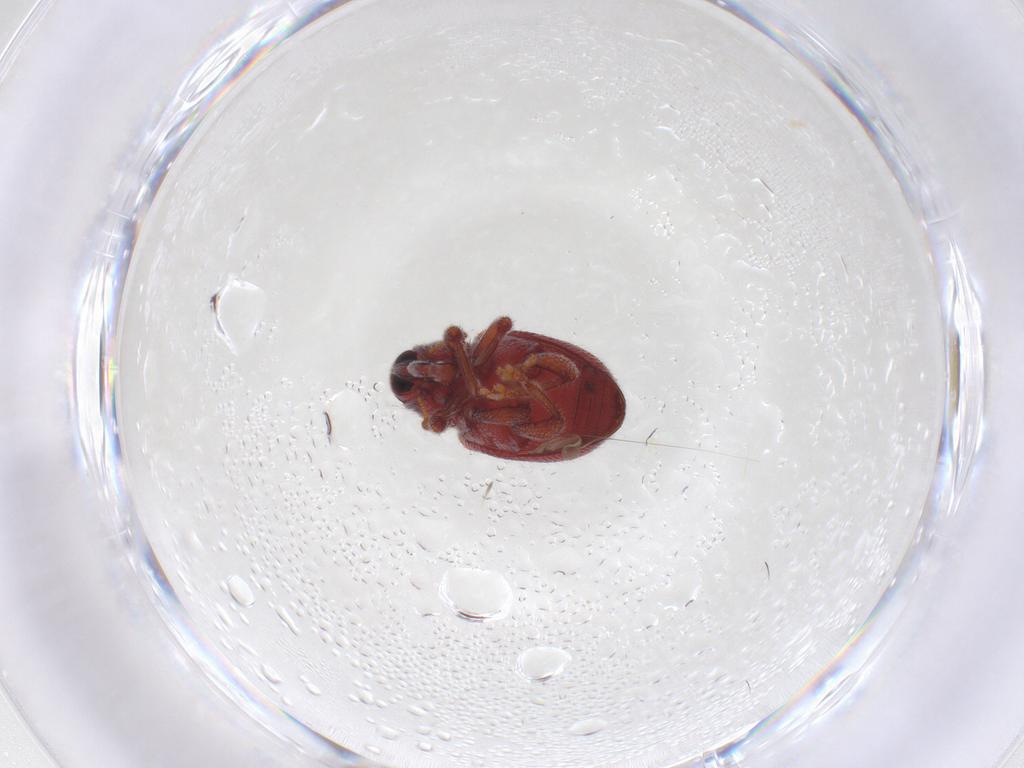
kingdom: Animalia
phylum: Arthropoda
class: Insecta
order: Coleoptera
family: Curculionidae
